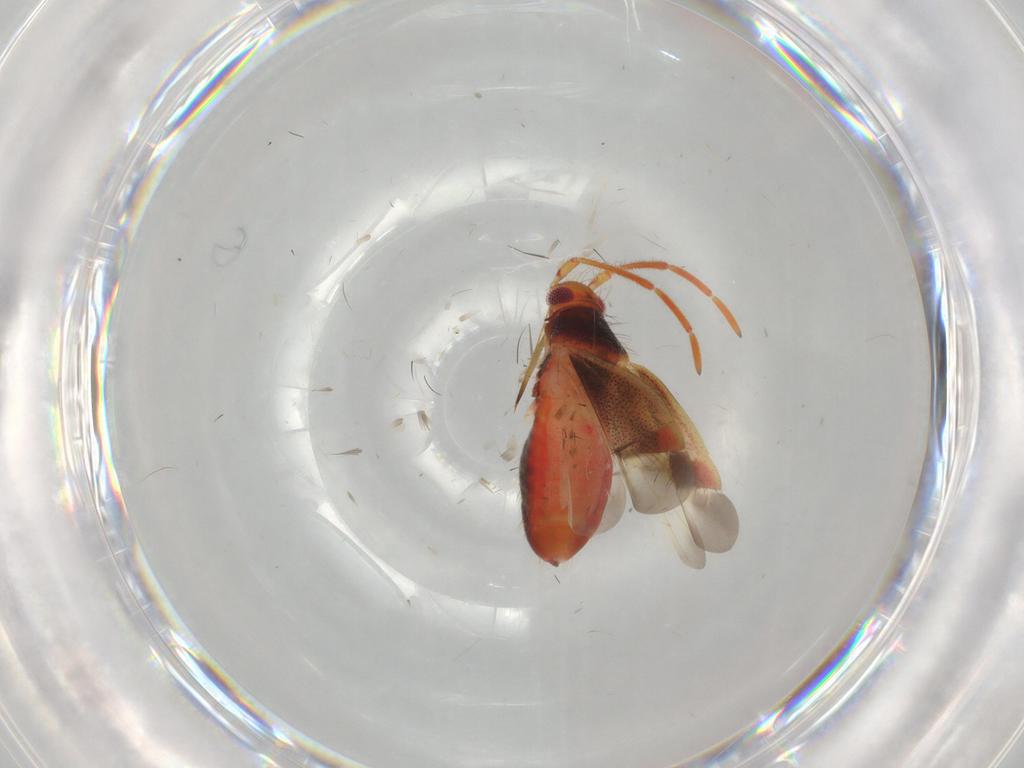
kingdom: Animalia
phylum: Arthropoda
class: Insecta
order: Hemiptera
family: Miridae
